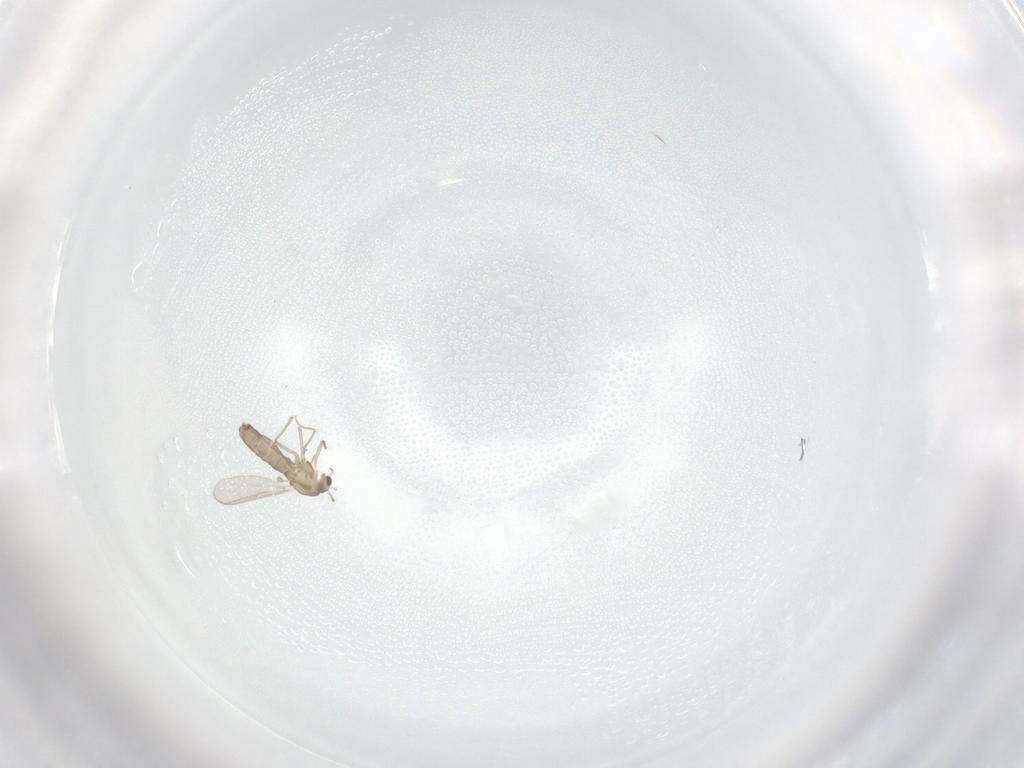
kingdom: Animalia
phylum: Arthropoda
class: Insecta
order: Diptera
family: Chironomidae
